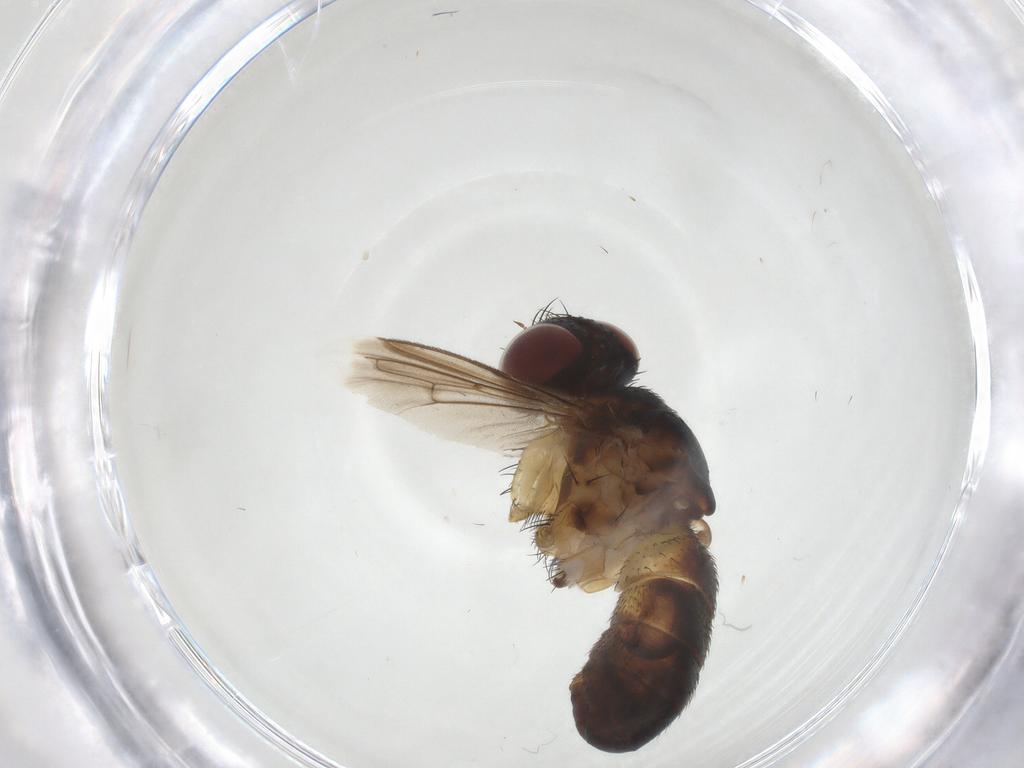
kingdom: Animalia
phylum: Arthropoda
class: Insecta
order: Diptera
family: Tachinidae
